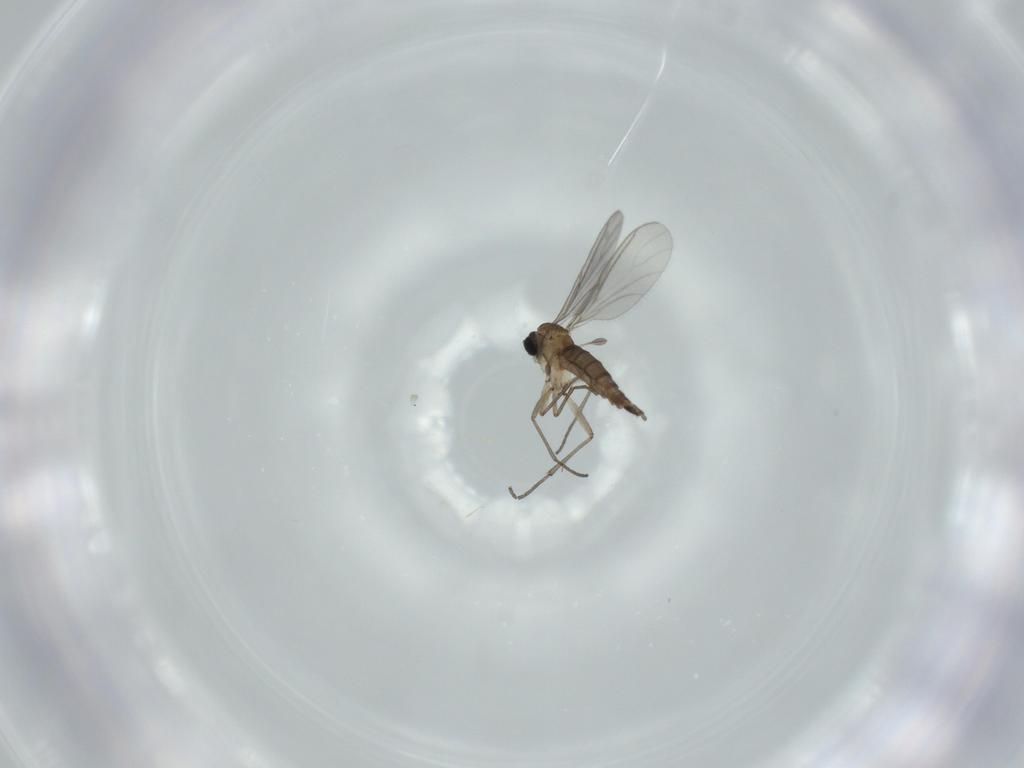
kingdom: Animalia
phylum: Arthropoda
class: Insecta
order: Diptera
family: Sciaridae
